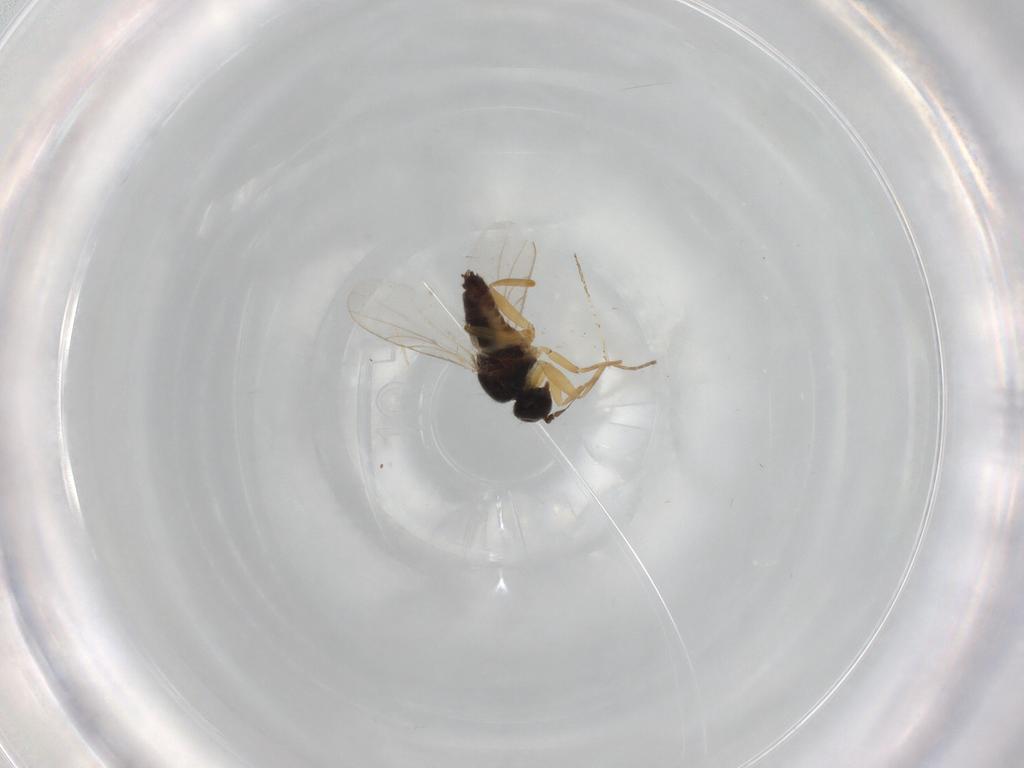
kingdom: Animalia
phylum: Arthropoda
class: Insecta
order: Diptera
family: Hybotidae
